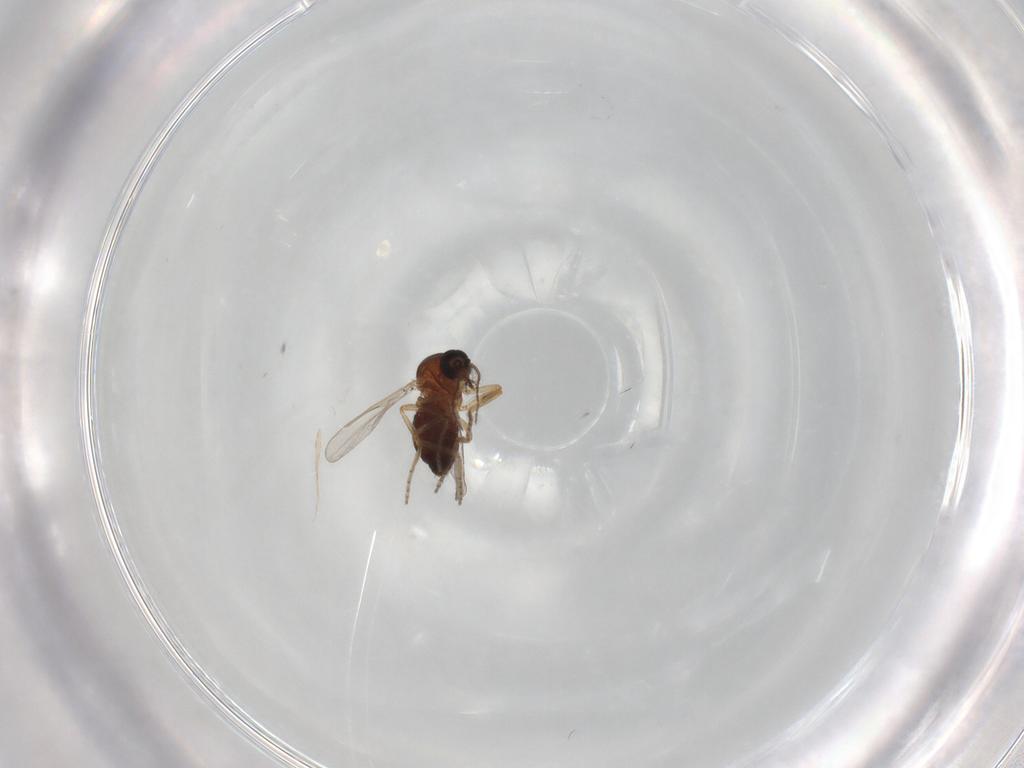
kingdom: Animalia
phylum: Arthropoda
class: Insecta
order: Diptera
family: Ceratopogonidae
